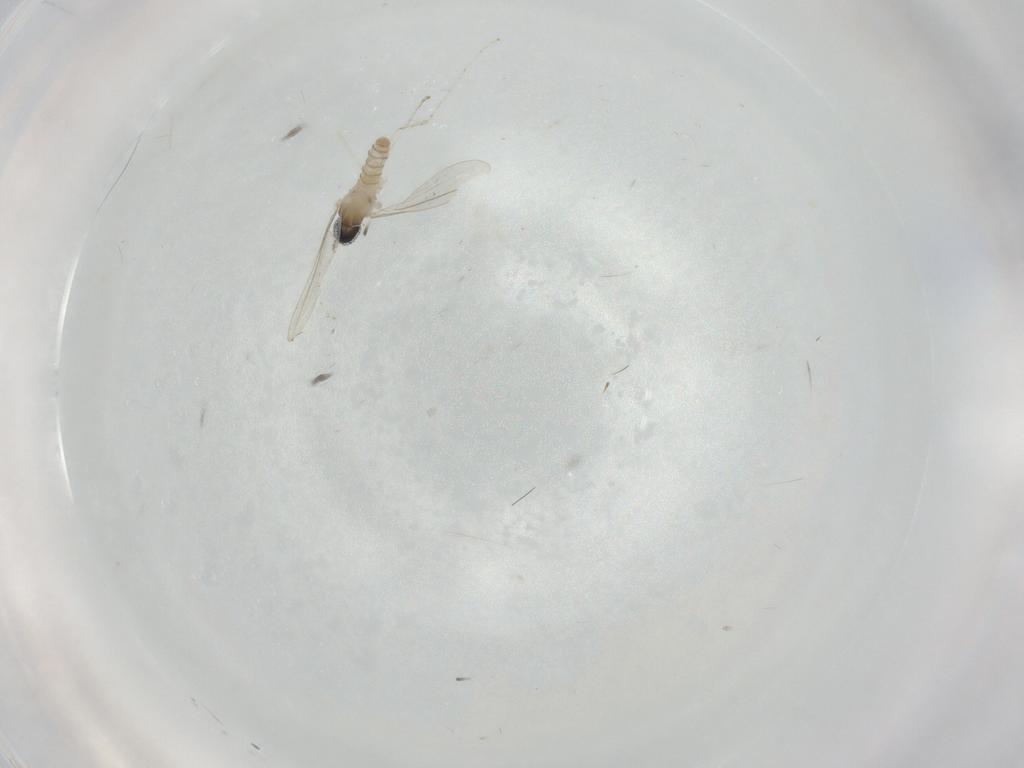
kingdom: Animalia
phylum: Arthropoda
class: Insecta
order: Diptera
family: Cecidomyiidae
